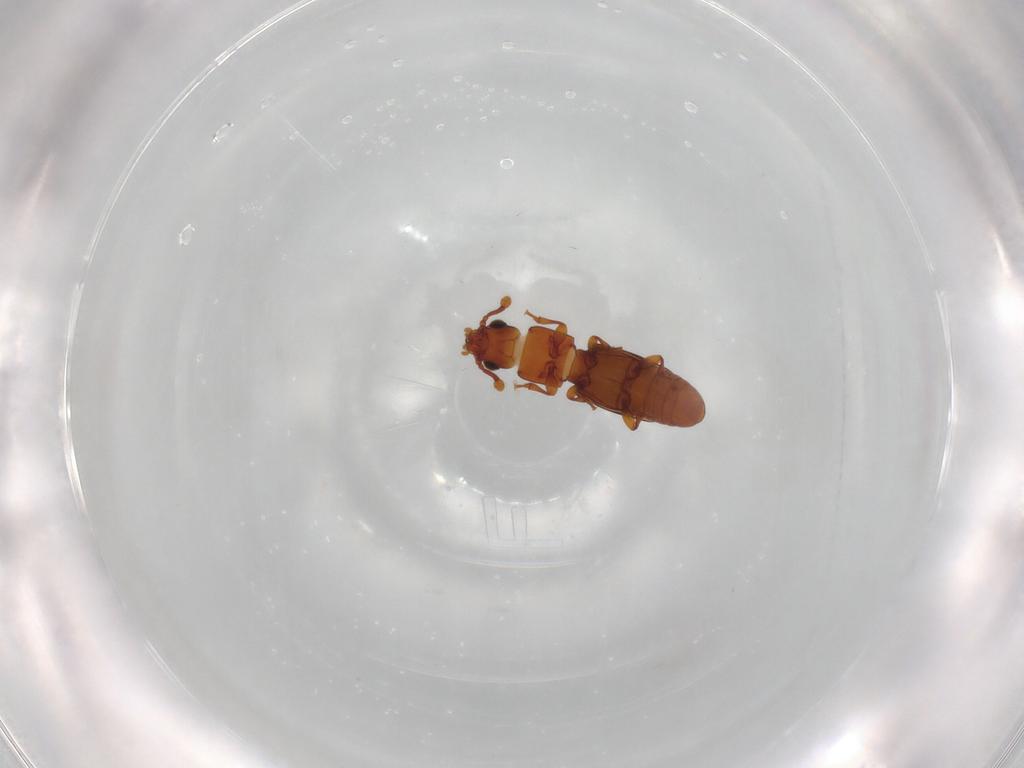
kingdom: Animalia
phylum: Arthropoda
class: Insecta
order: Coleoptera
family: Monotomidae
